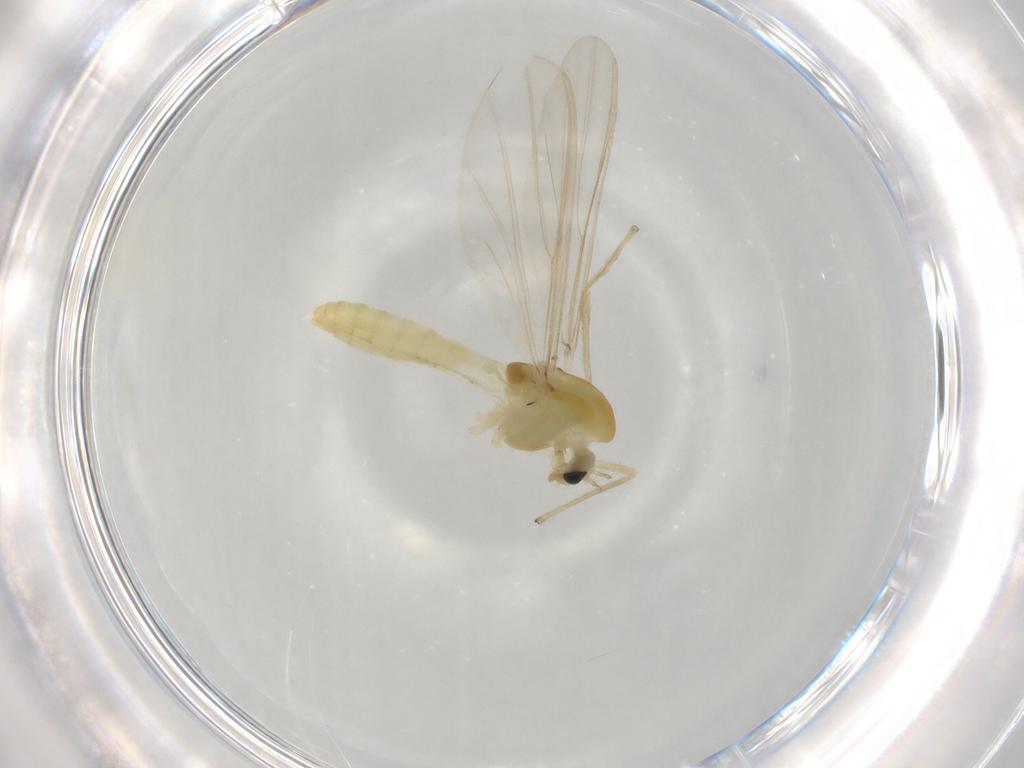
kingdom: Animalia
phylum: Arthropoda
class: Insecta
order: Diptera
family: Chironomidae
